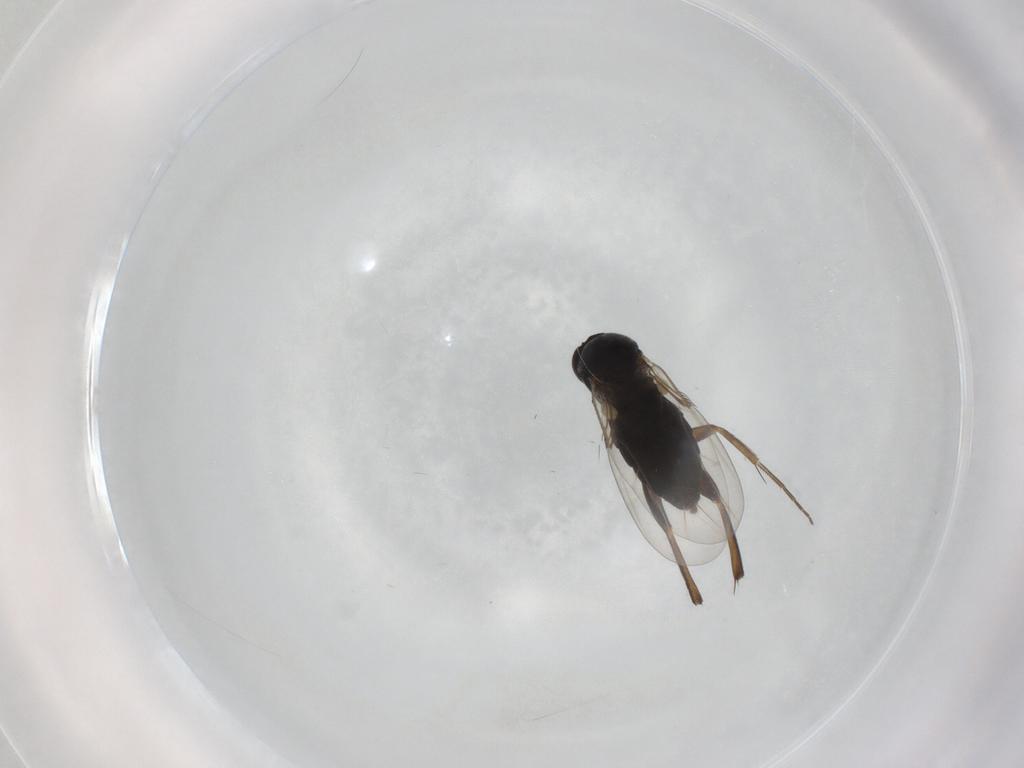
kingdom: Animalia
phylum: Arthropoda
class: Insecta
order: Diptera
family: Phoridae
